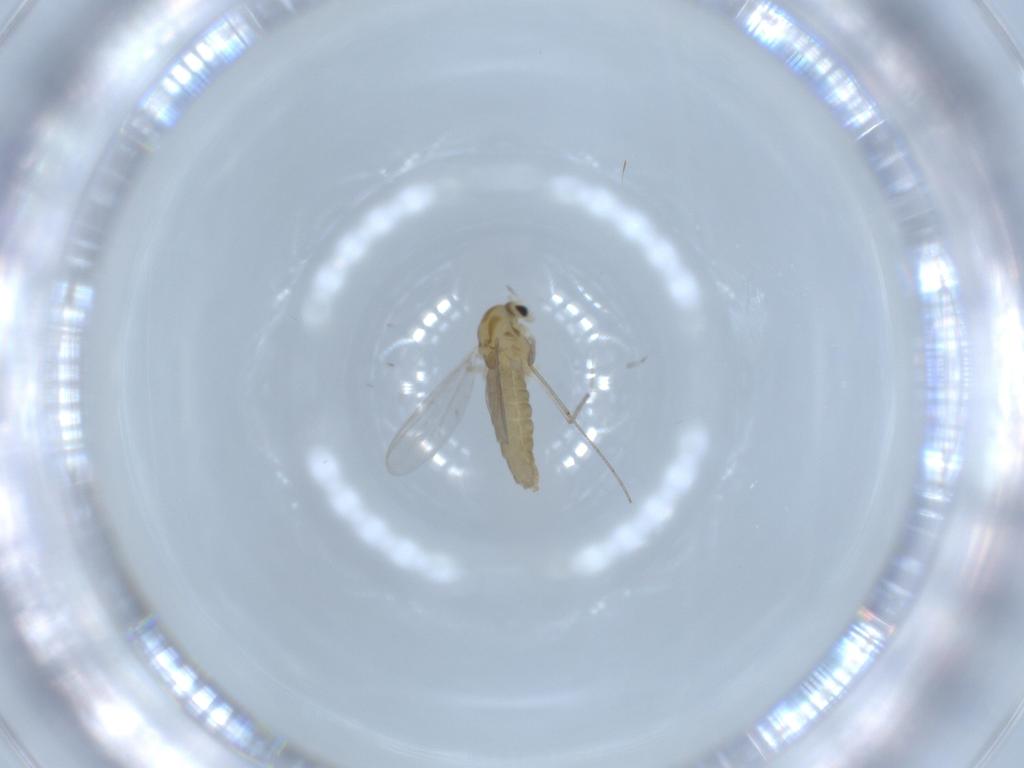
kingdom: Animalia
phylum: Arthropoda
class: Insecta
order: Diptera
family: Chironomidae
